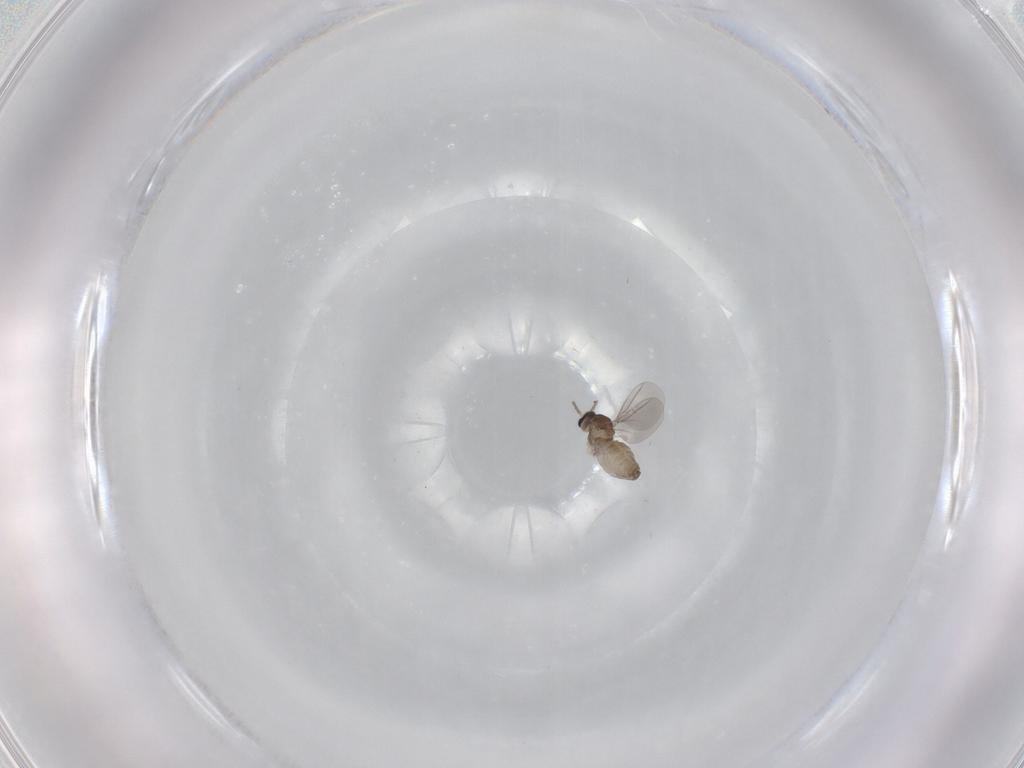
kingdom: Animalia
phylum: Arthropoda
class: Insecta
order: Diptera
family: Cecidomyiidae
